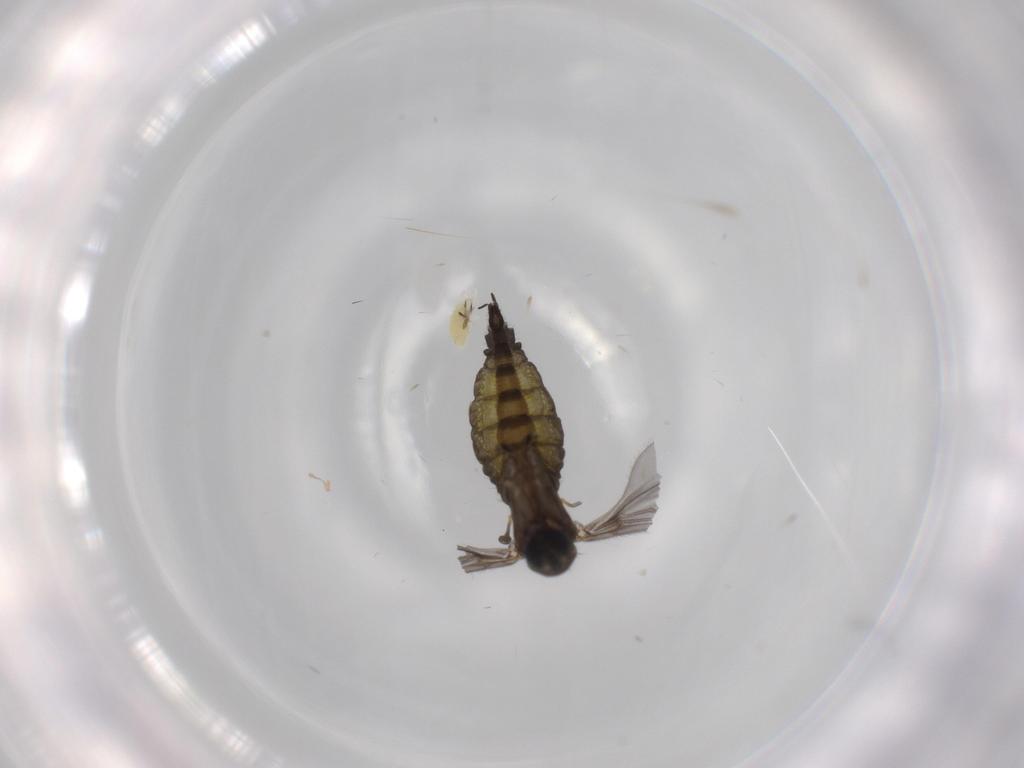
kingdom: Animalia
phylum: Arthropoda
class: Insecta
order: Diptera
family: Sciaridae
